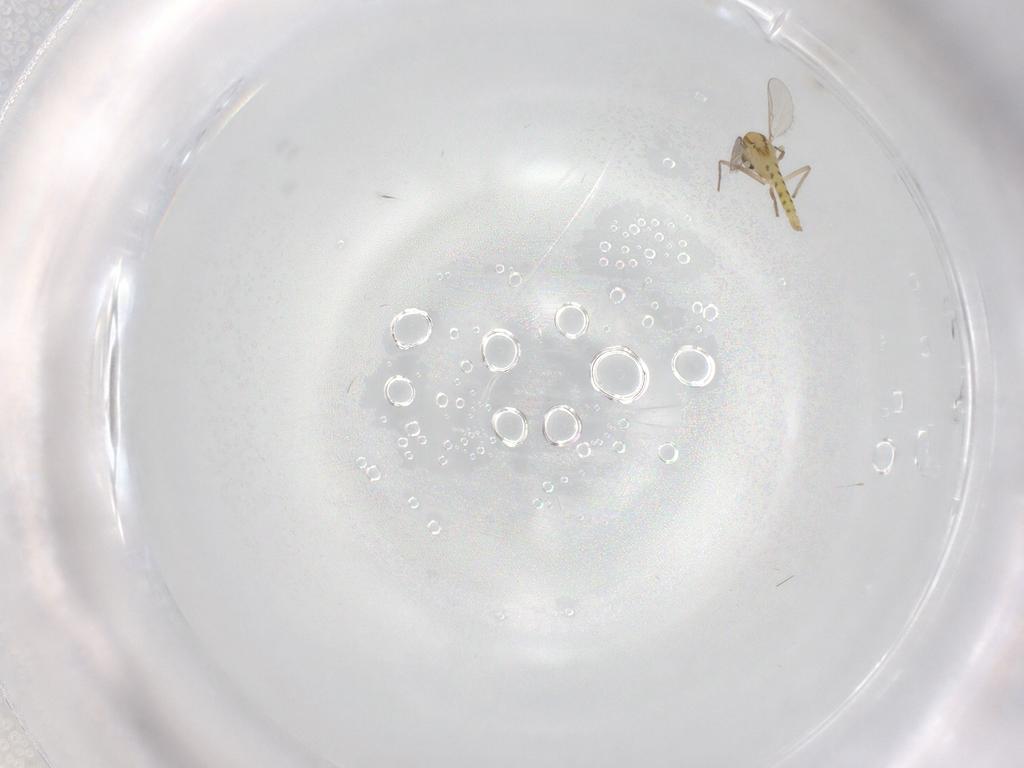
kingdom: Animalia
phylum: Arthropoda
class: Insecta
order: Diptera
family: Chironomidae
